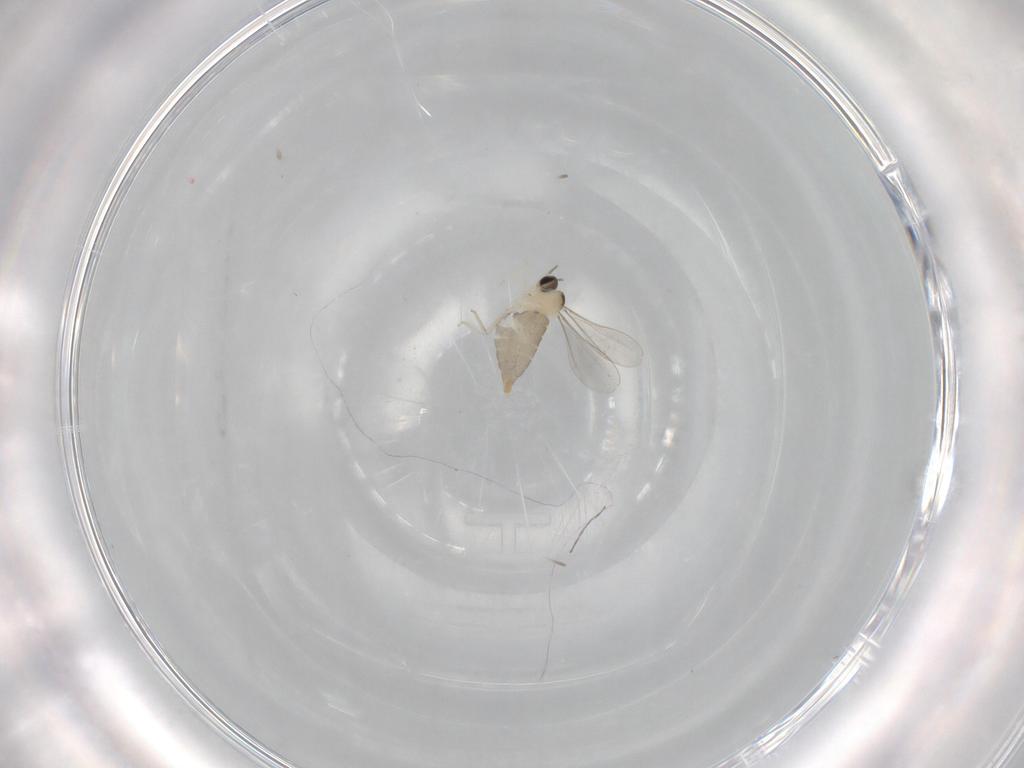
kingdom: Animalia
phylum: Arthropoda
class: Insecta
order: Diptera
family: Cecidomyiidae
